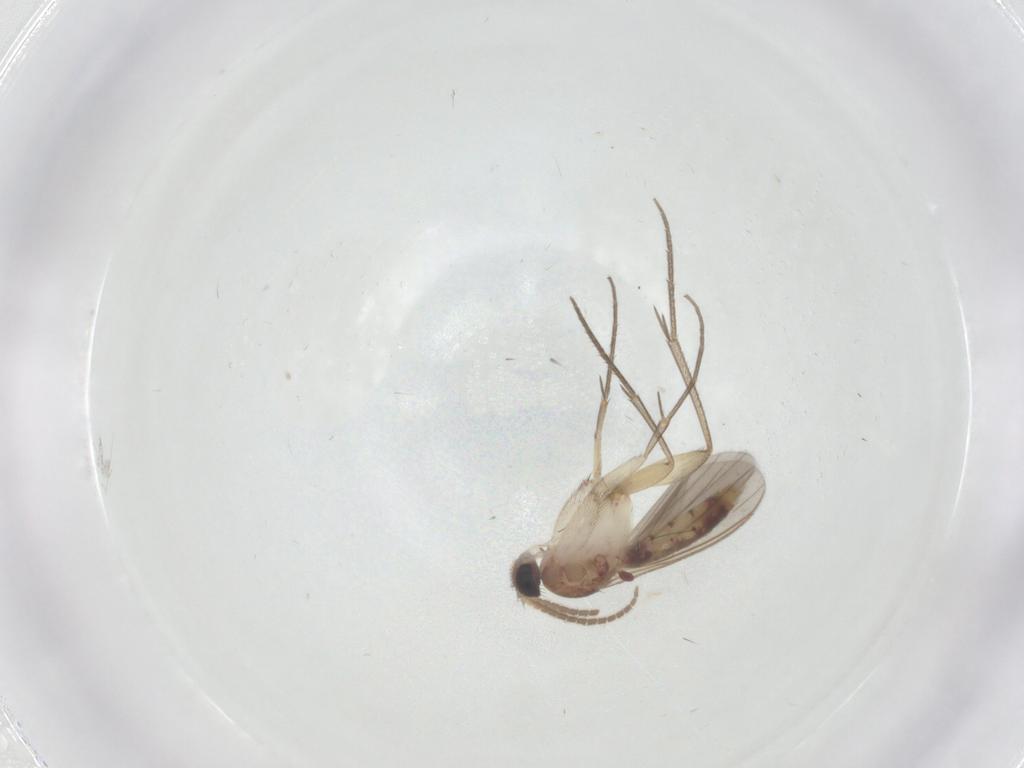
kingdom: Animalia
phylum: Arthropoda
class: Insecta
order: Diptera
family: Mycetophilidae
